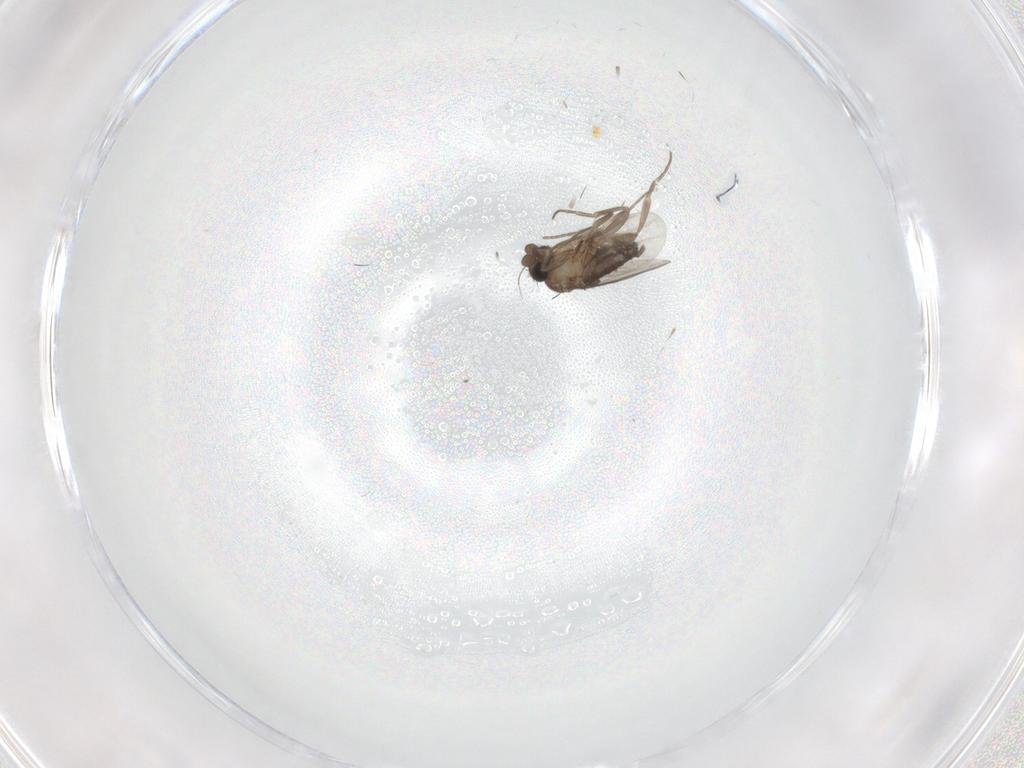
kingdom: Animalia
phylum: Arthropoda
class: Insecta
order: Diptera
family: Phoridae
